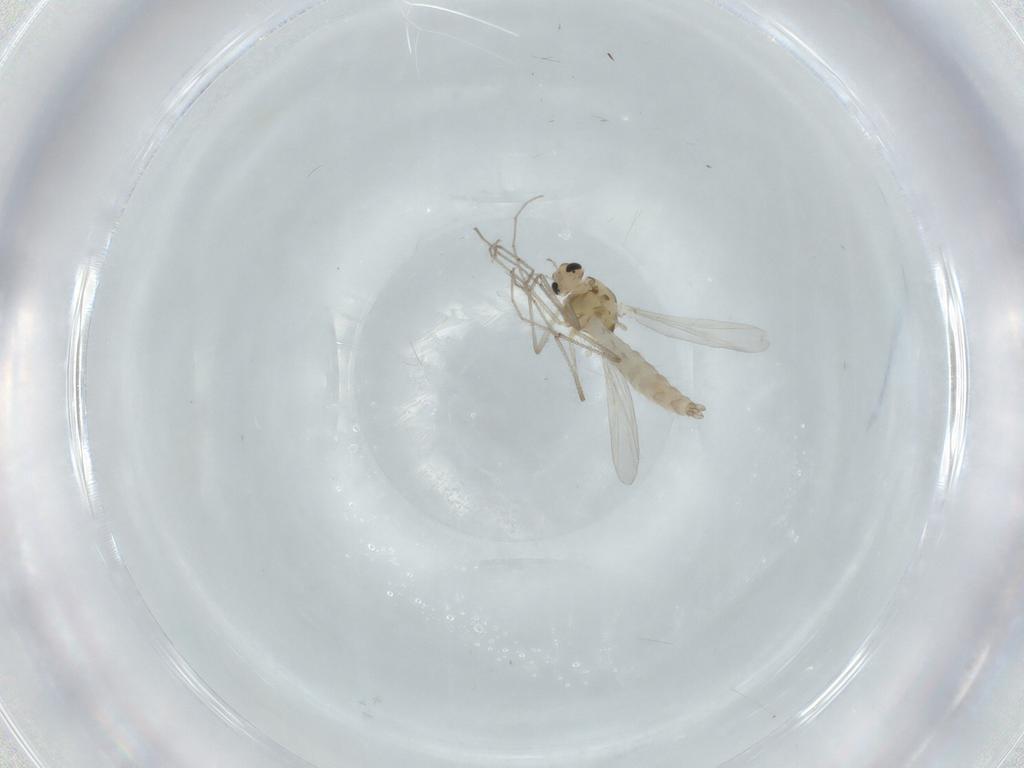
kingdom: Animalia
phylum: Arthropoda
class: Insecta
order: Diptera
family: Chironomidae
